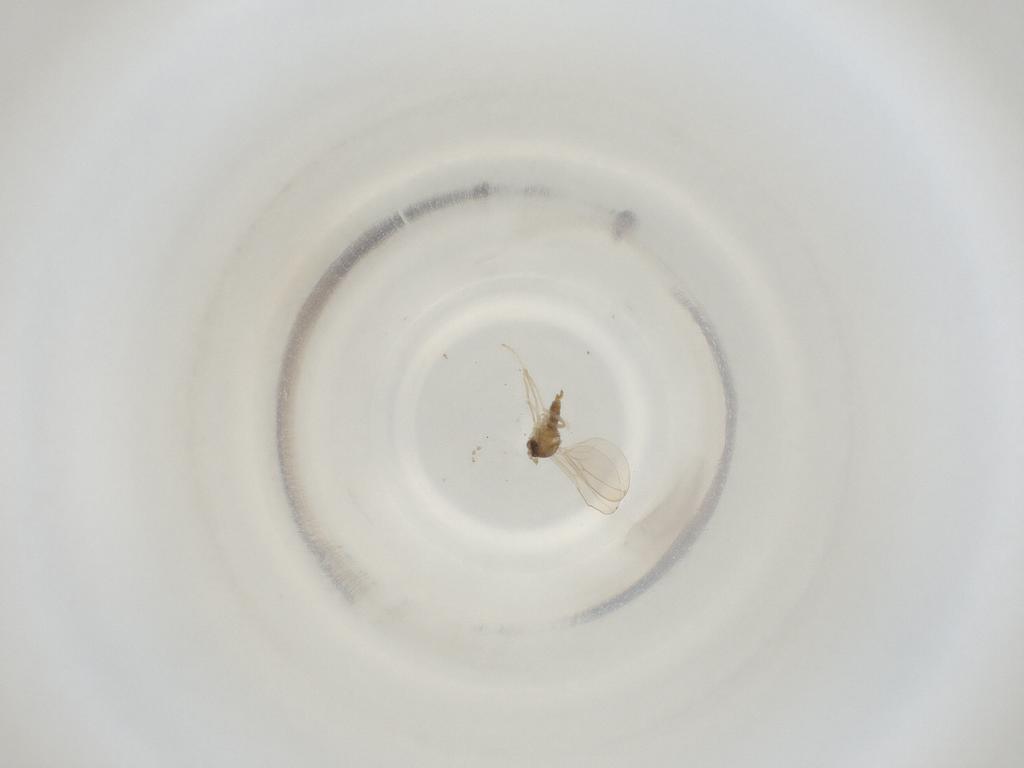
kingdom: Animalia
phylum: Arthropoda
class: Insecta
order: Diptera
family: Cecidomyiidae
